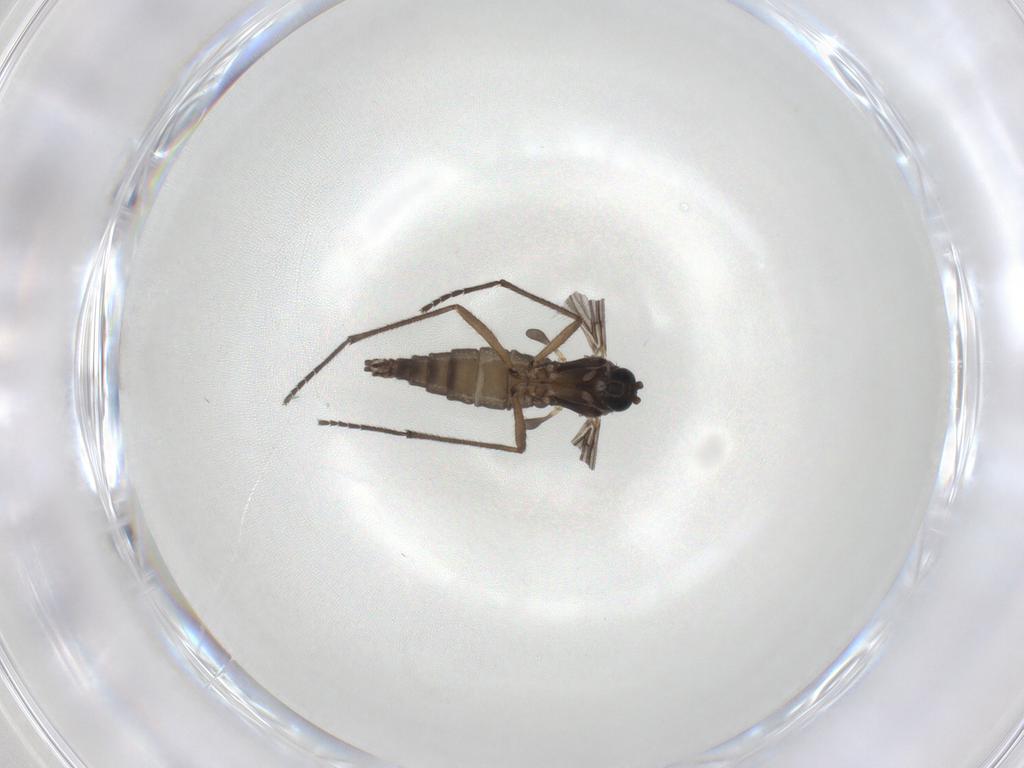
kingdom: Animalia
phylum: Arthropoda
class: Insecta
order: Diptera
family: Sciaridae
